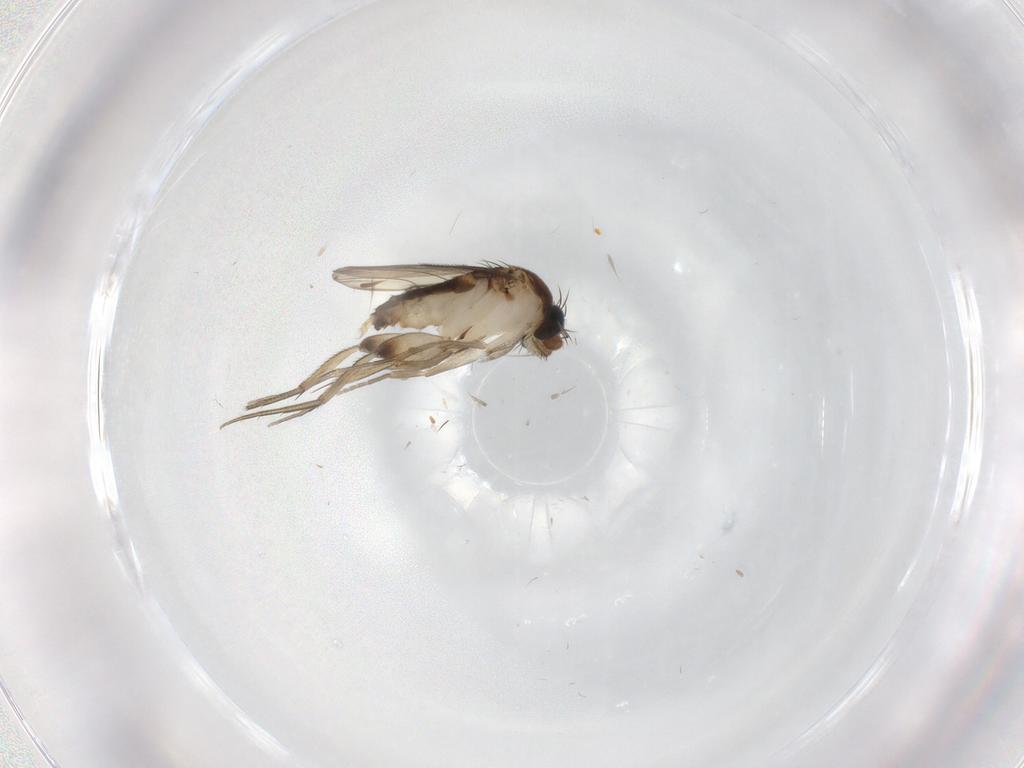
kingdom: Animalia
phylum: Arthropoda
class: Insecta
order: Diptera
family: Phoridae
